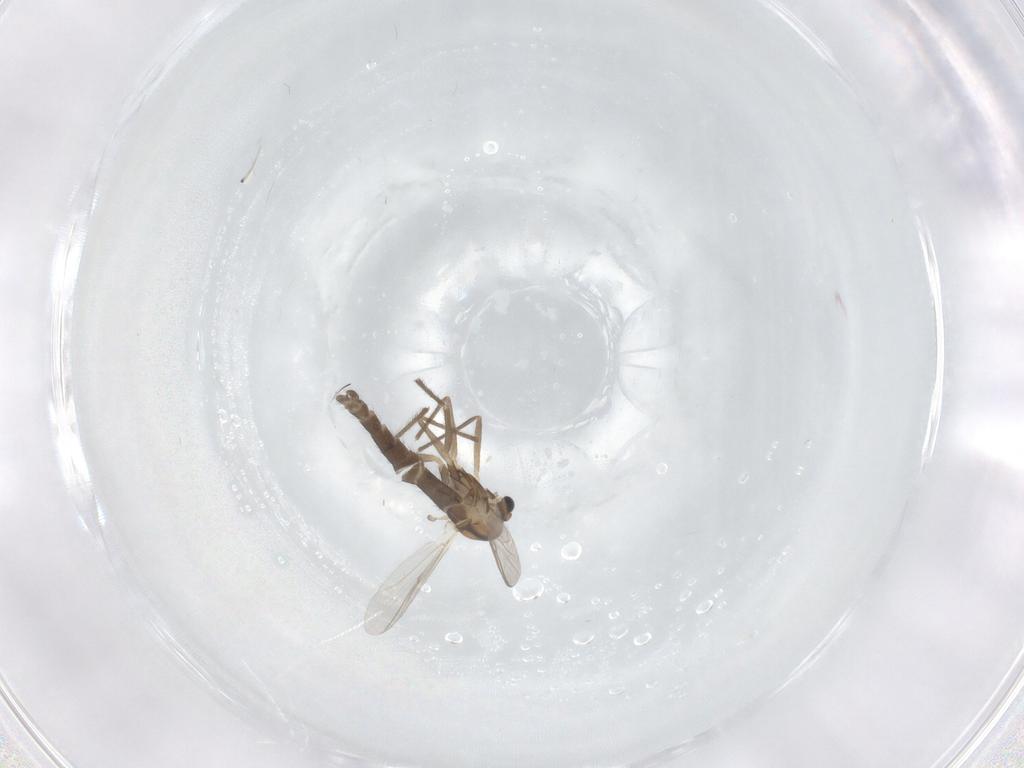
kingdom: Animalia
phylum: Arthropoda
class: Insecta
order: Diptera
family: Chironomidae
